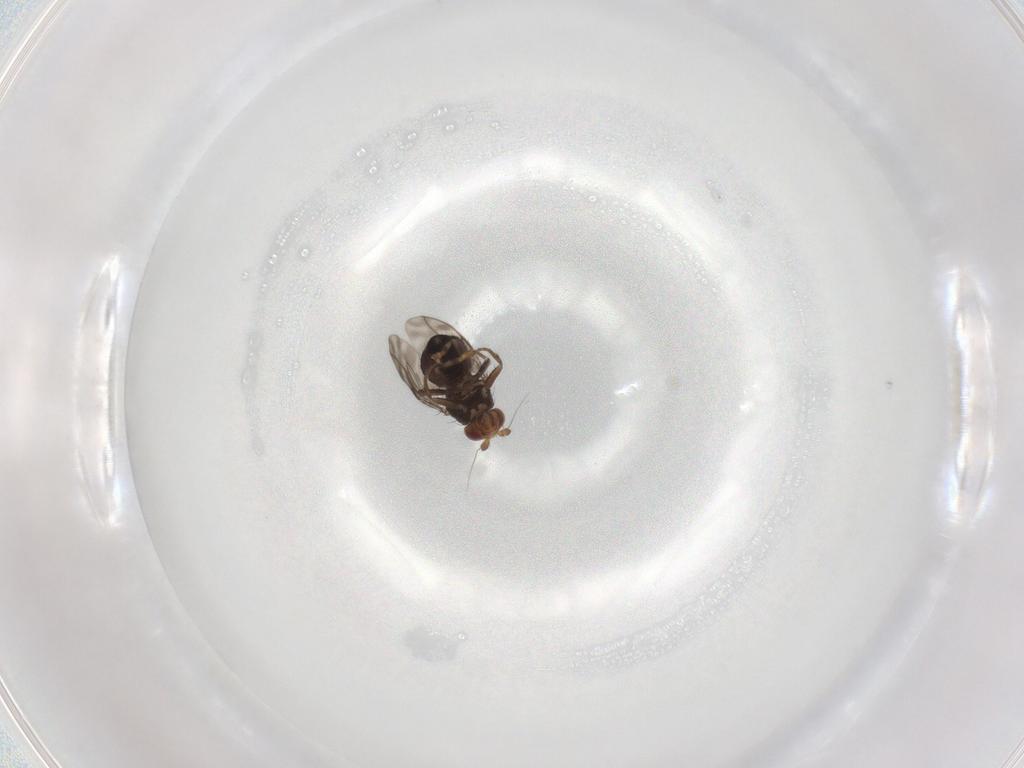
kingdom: Animalia
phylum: Arthropoda
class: Insecta
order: Diptera
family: Sphaeroceridae
